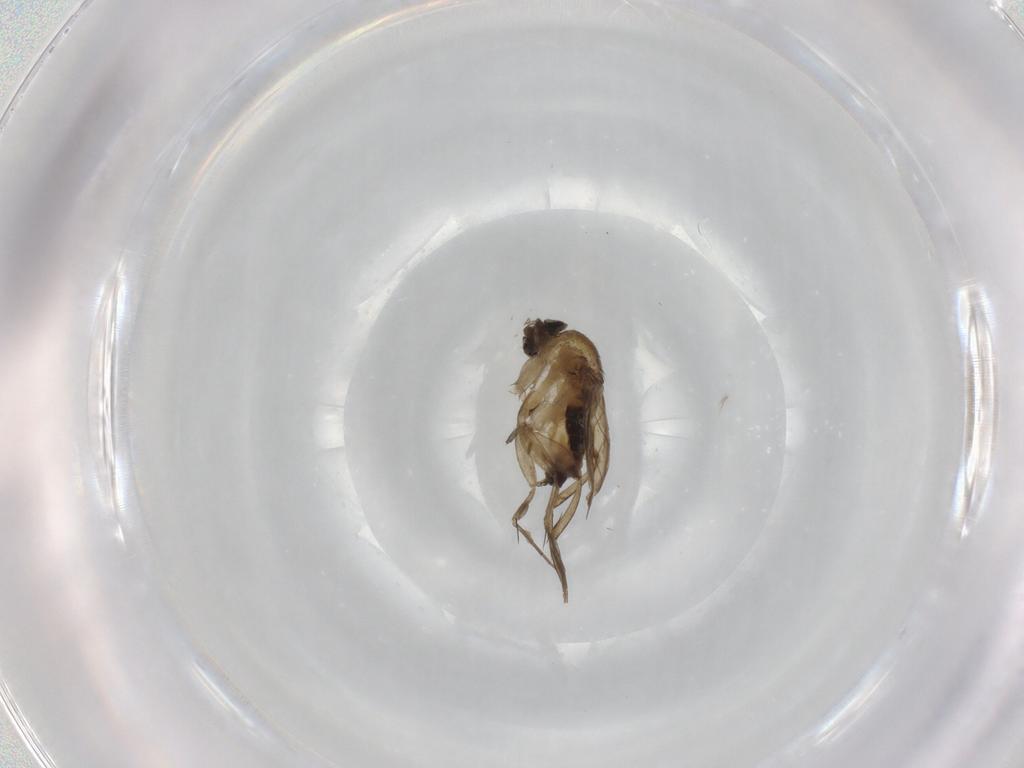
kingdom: Animalia
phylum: Arthropoda
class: Insecta
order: Diptera
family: Phoridae
